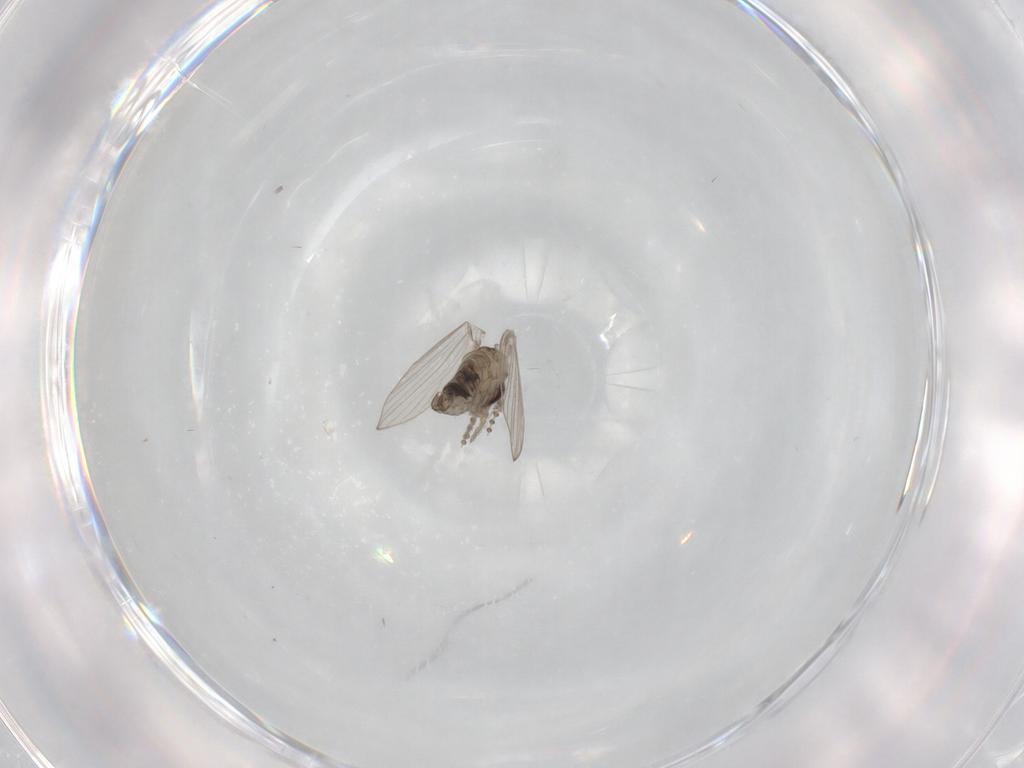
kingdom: Animalia
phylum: Arthropoda
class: Insecta
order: Diptera
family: Psychodidae
